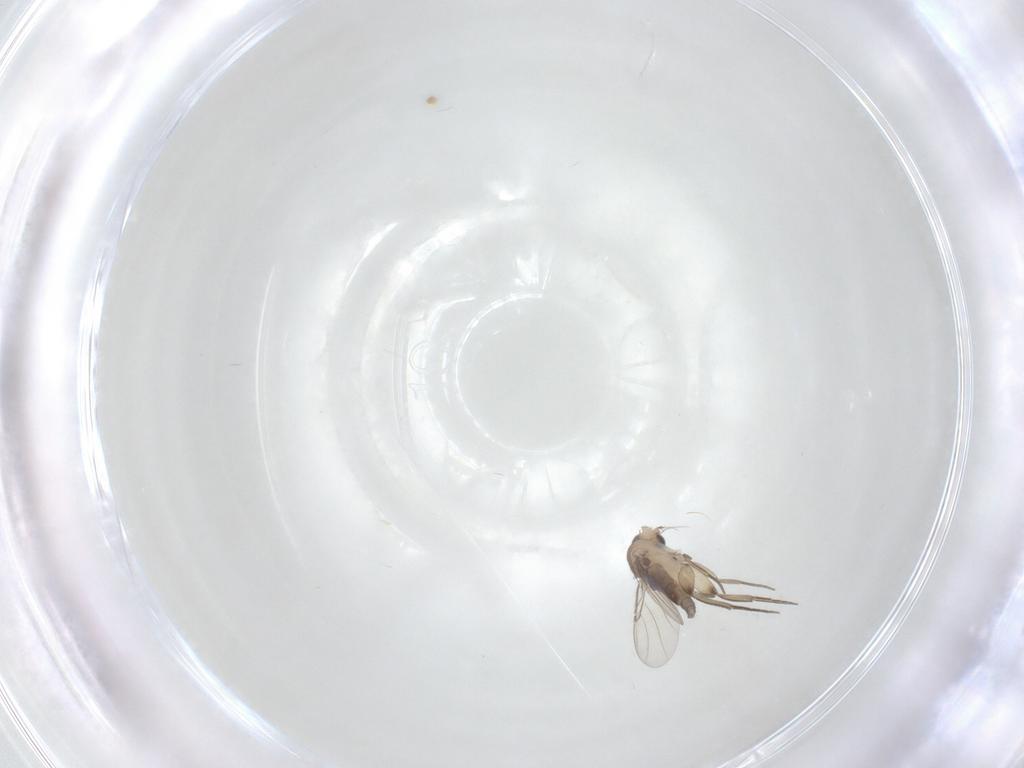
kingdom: Animalia
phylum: Arthropoda
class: Insecta
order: Diptera
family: Phoridae
